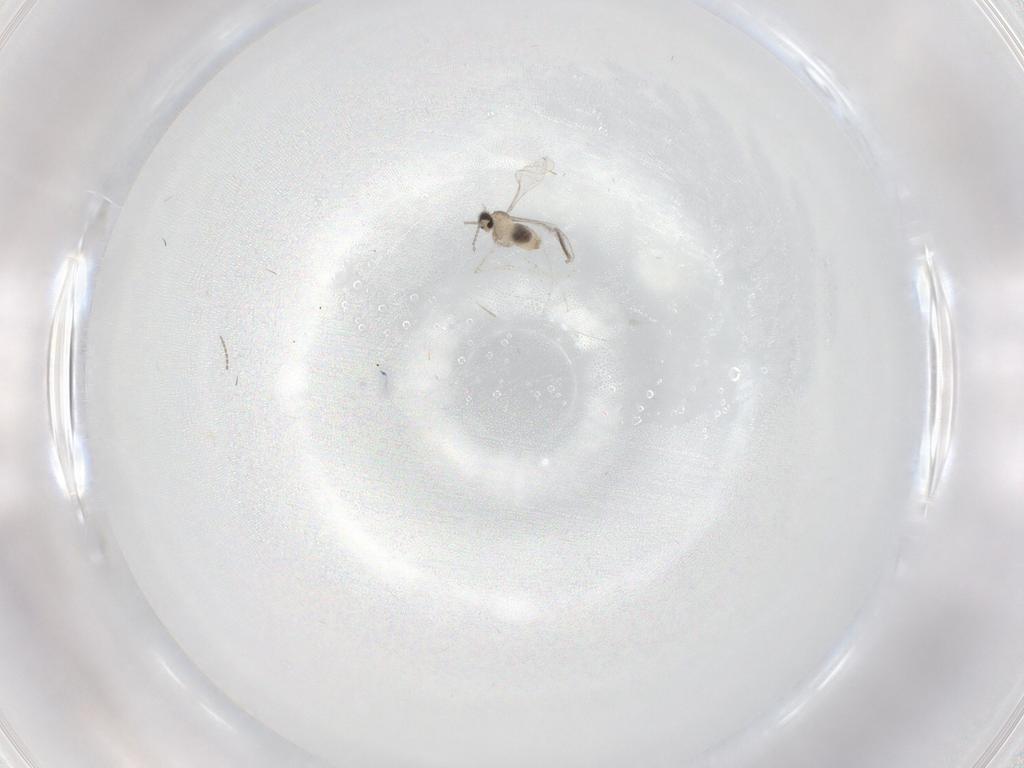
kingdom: Animalia
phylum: Arthropoda
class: Insecta
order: Diptera
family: Cecidomyiidae
